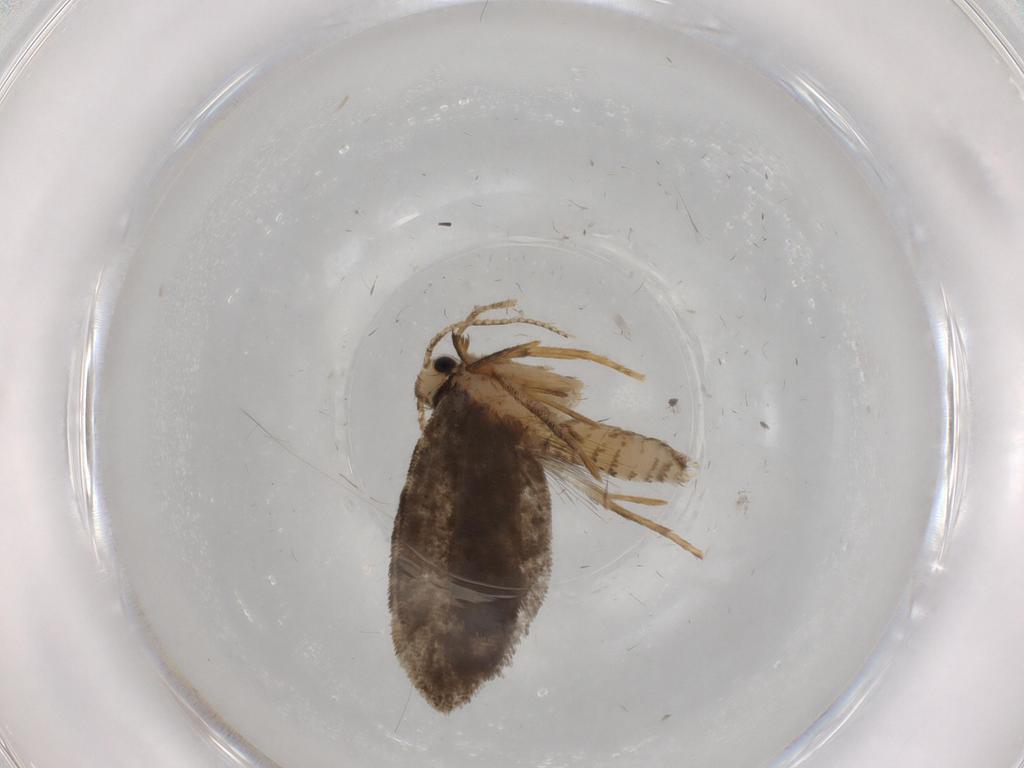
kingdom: Animalia
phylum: Arthropoda
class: Insecta
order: Lepidoptera
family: Psychidae
